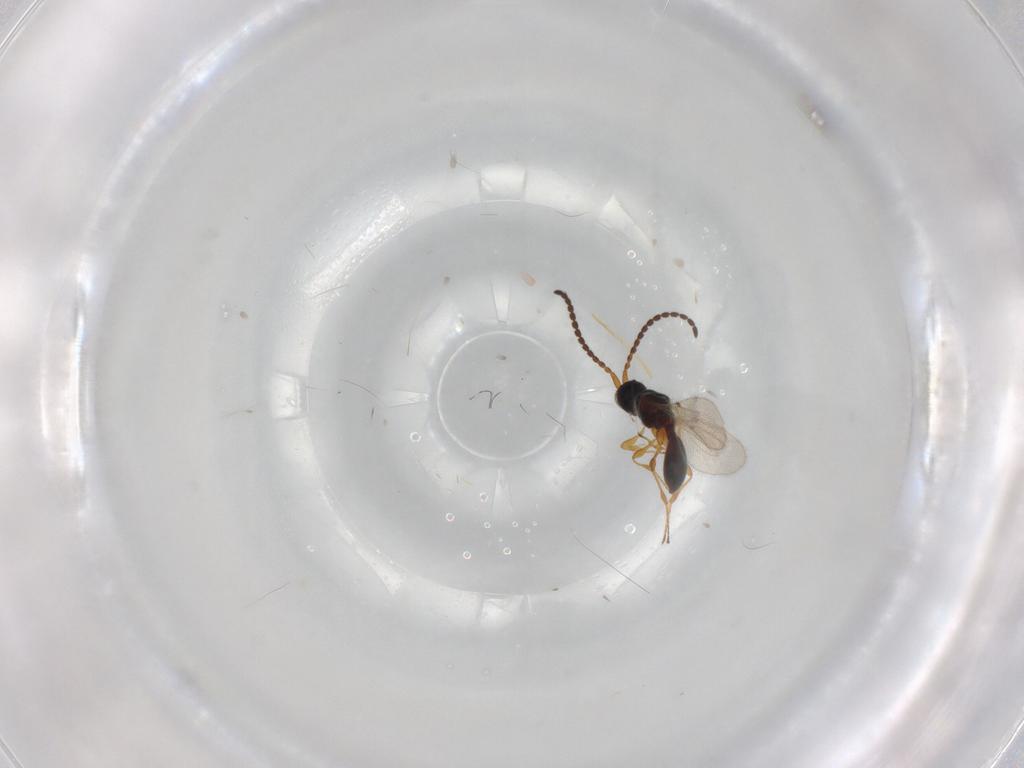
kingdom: Animalia
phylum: Arthropoda
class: Insecta
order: Hymenoptera
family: Diapriidae
